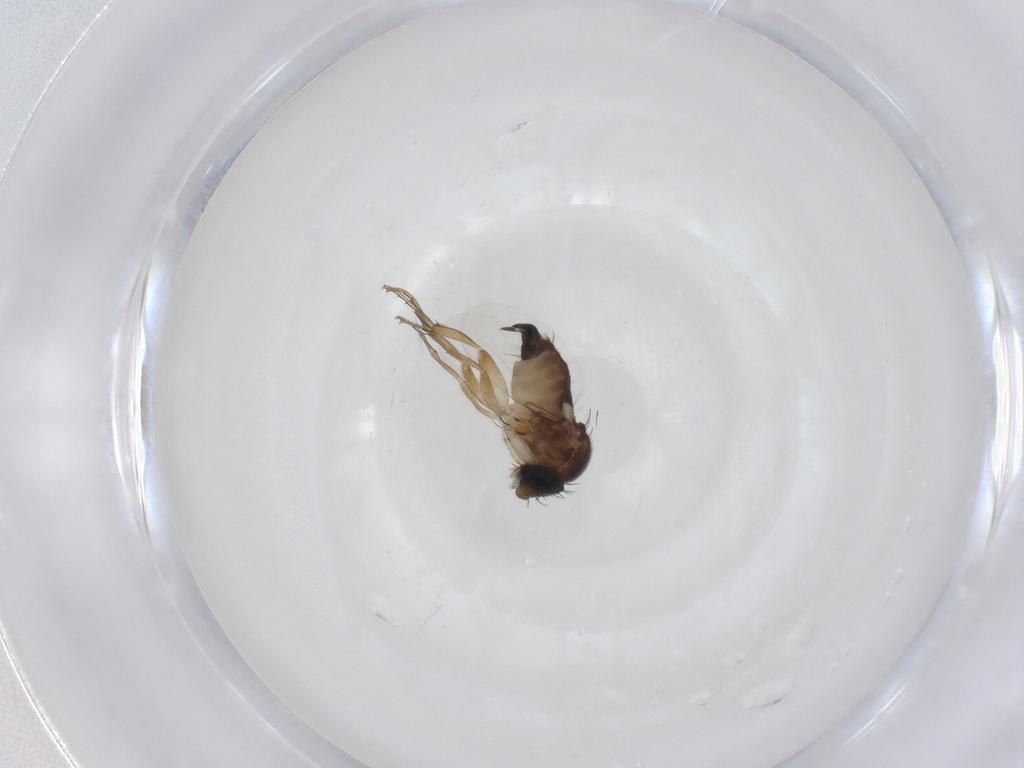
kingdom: Animalia
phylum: Arthropoda
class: Insecta
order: Diptera
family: Phoridae
